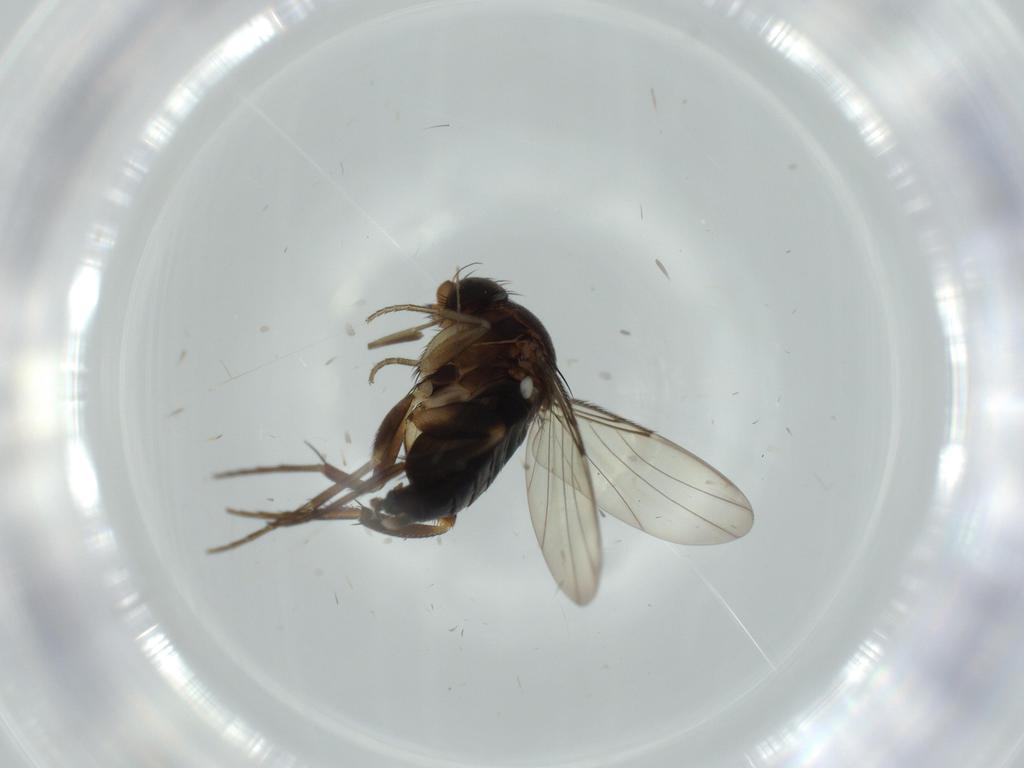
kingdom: Animalia
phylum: Arthropoda
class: Insecta
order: Diptera
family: Phoridae
